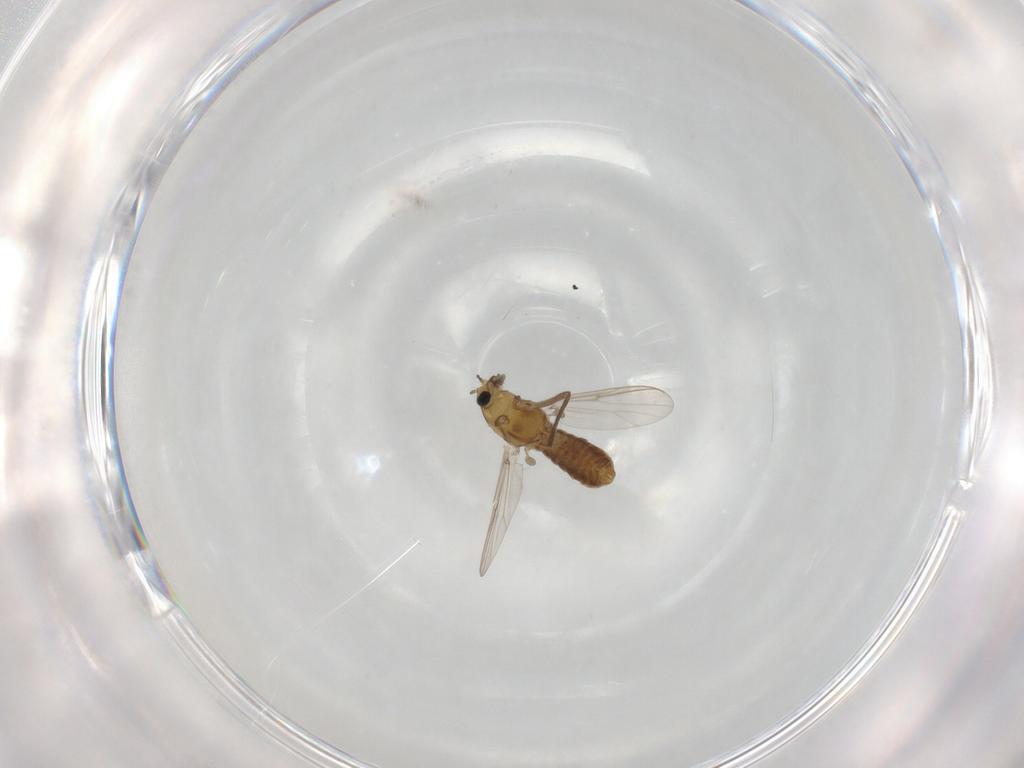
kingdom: Animalia
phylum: Arthropoda
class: Insecta
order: Diptera
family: Chironomidae
